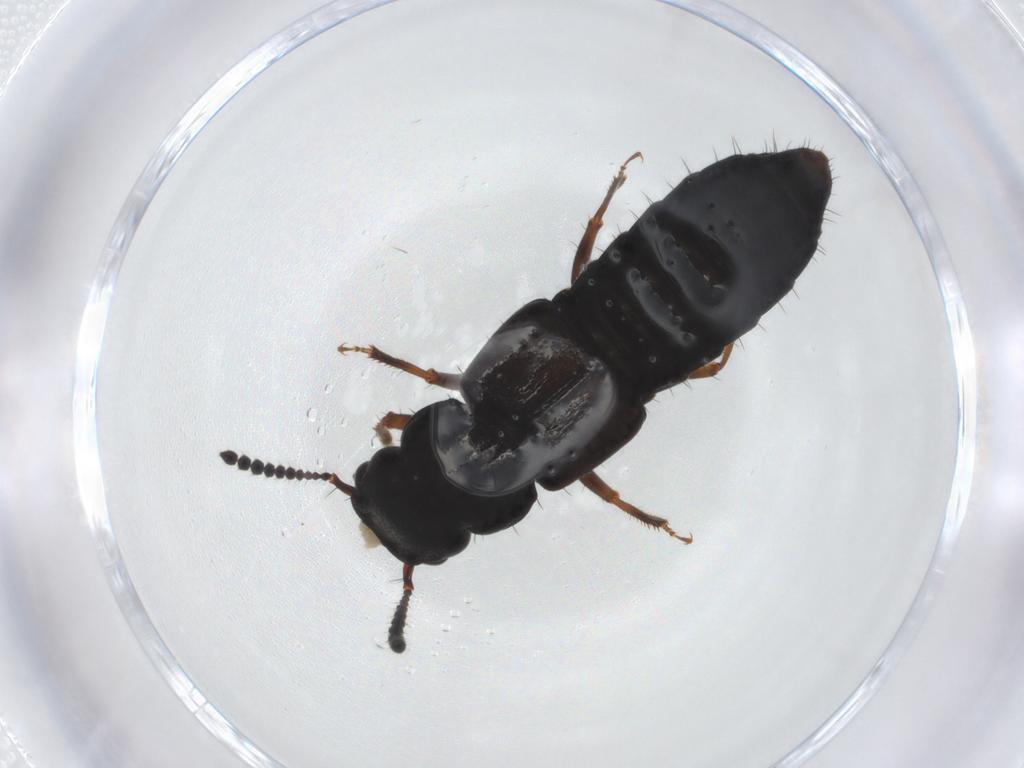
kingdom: Animalia
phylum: Arthropoda
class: Insecta
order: Coleoptera
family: Staphylinidae
